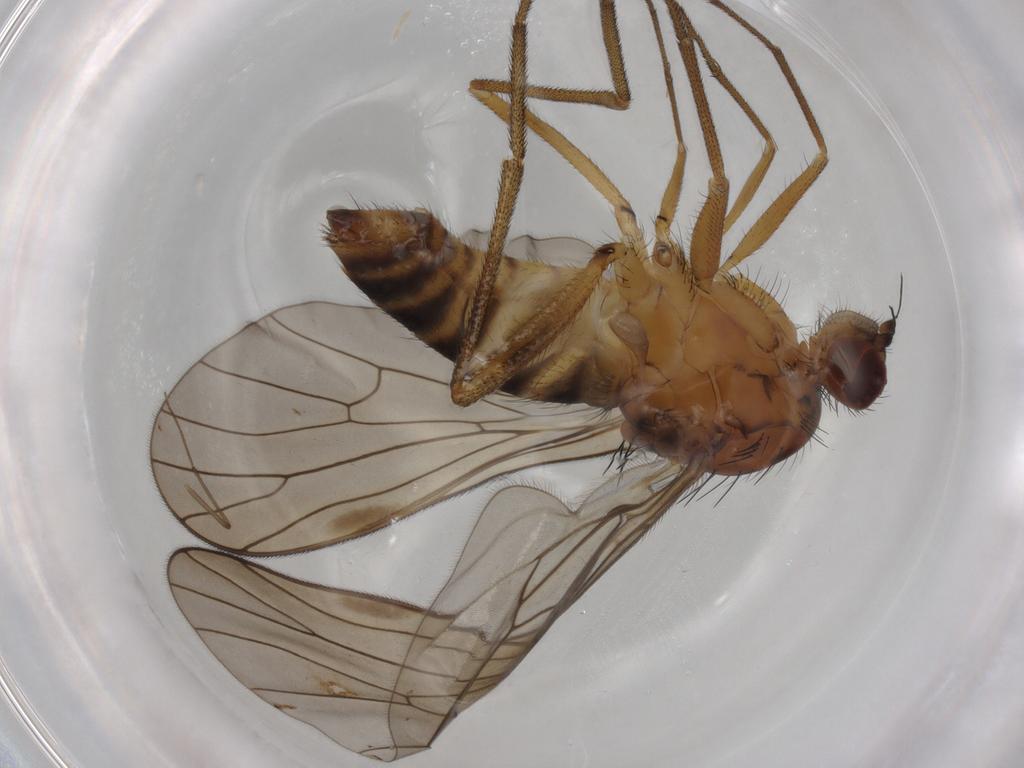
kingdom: Animalia
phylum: Arthropoda
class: Insecta
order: Diptera
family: Brachystomatidae
